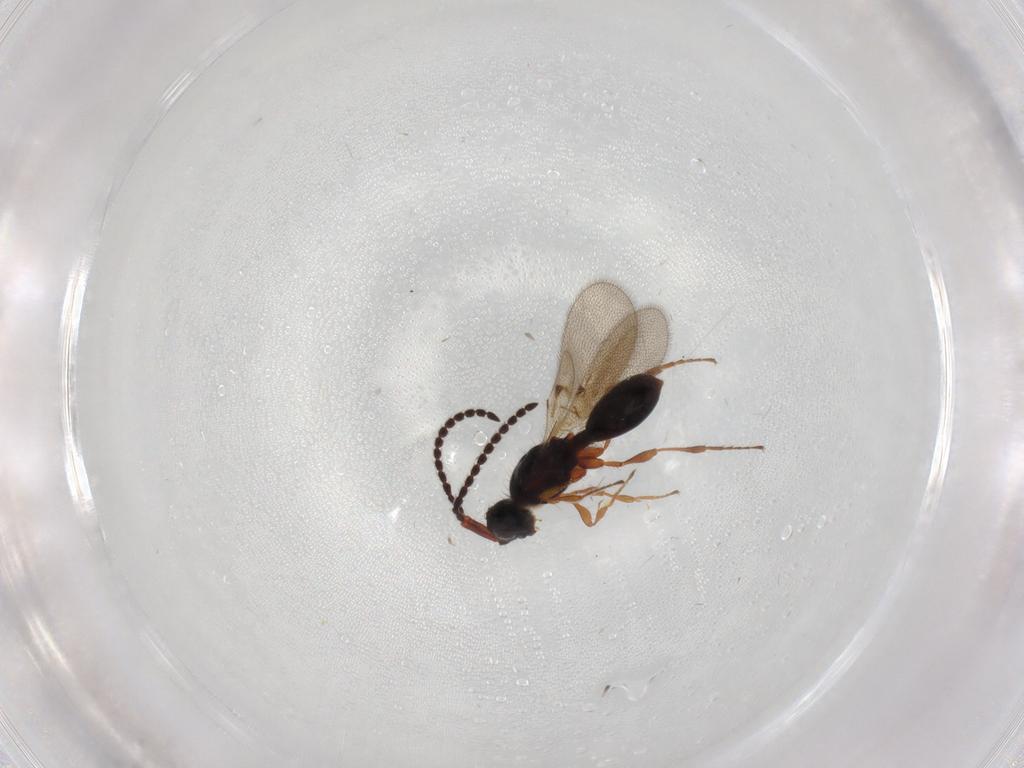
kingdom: Animalia
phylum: Arthropoda
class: Insecta
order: Hymenoptera
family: Diapriidae
